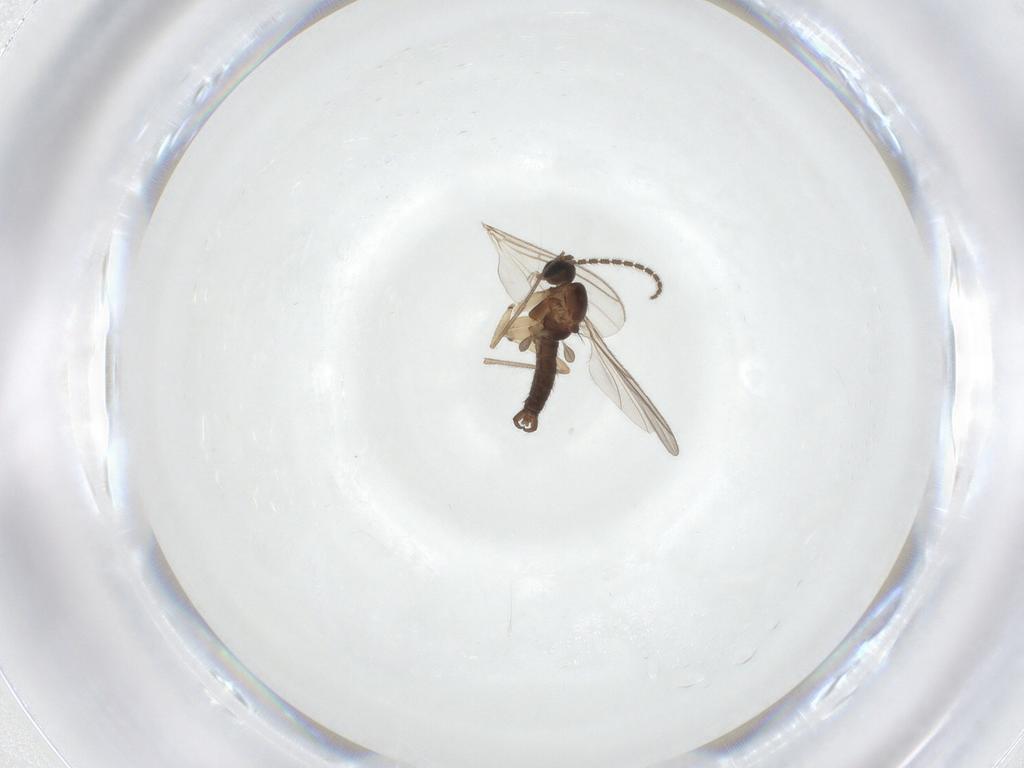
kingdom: Animalia
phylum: Arthropoda
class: Insecta
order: Diptera
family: Sciaridae
